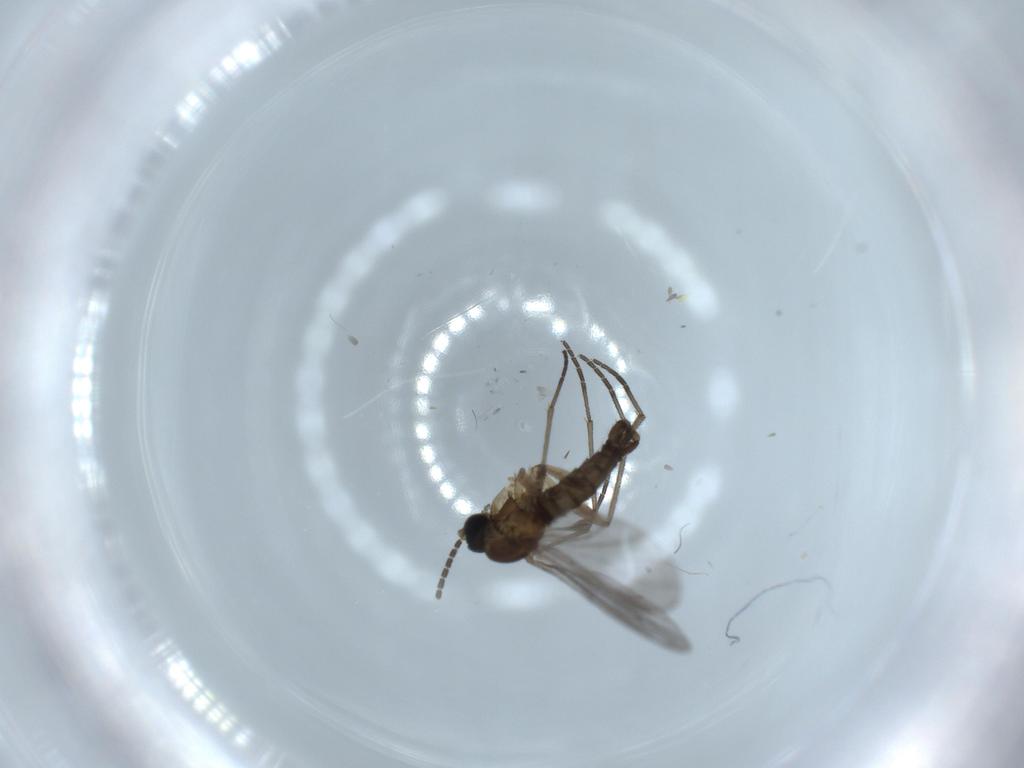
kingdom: Animalia
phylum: Arthropoda
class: Insecta
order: Diptera
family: Sciaridae
